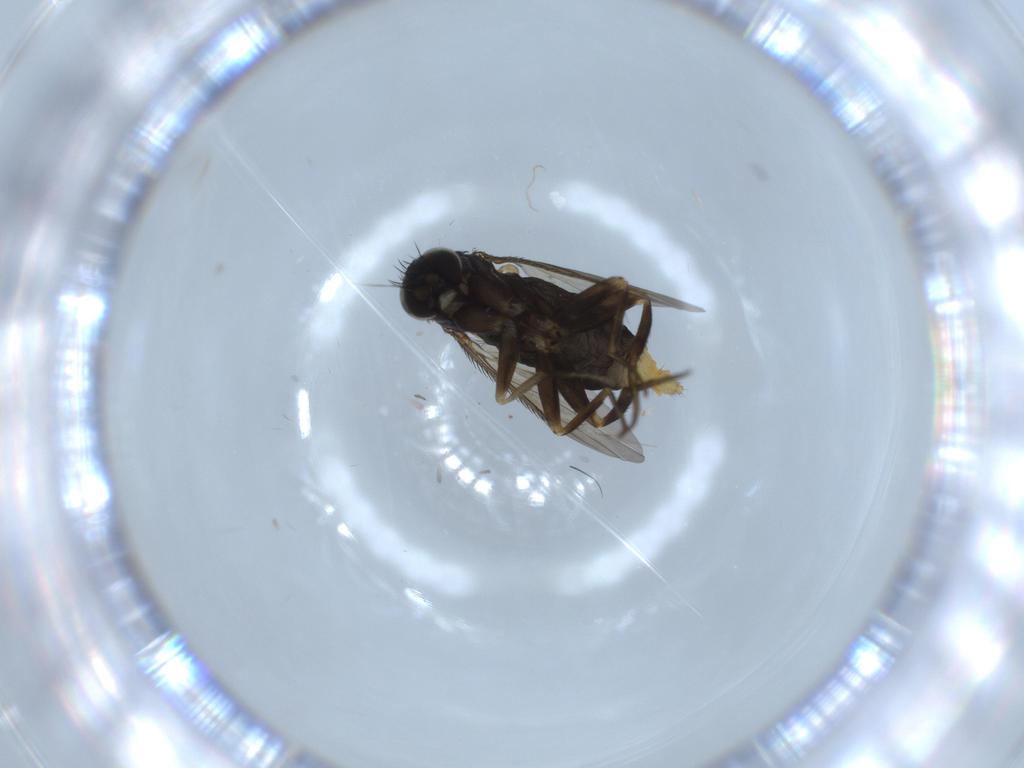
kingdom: Animalia
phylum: Arthropoda
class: Insecta
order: Diptera
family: Phoridae
